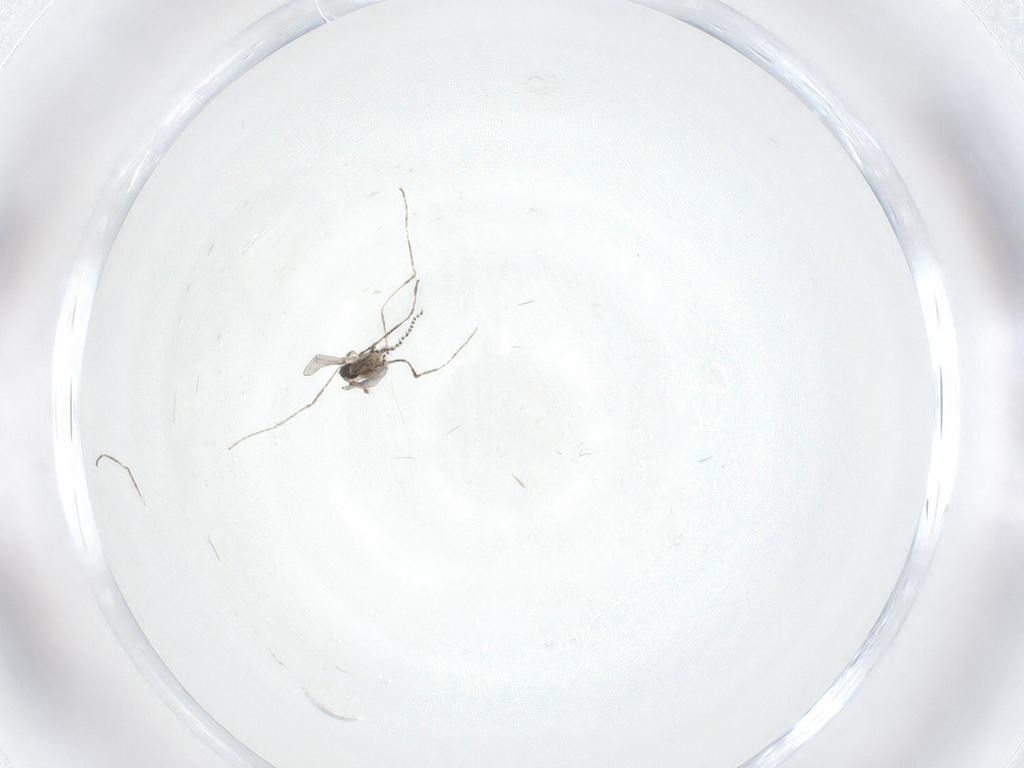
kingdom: Animalia
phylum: Arthropoda
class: Insecta
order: Diptera
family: Cecidomyiidae
